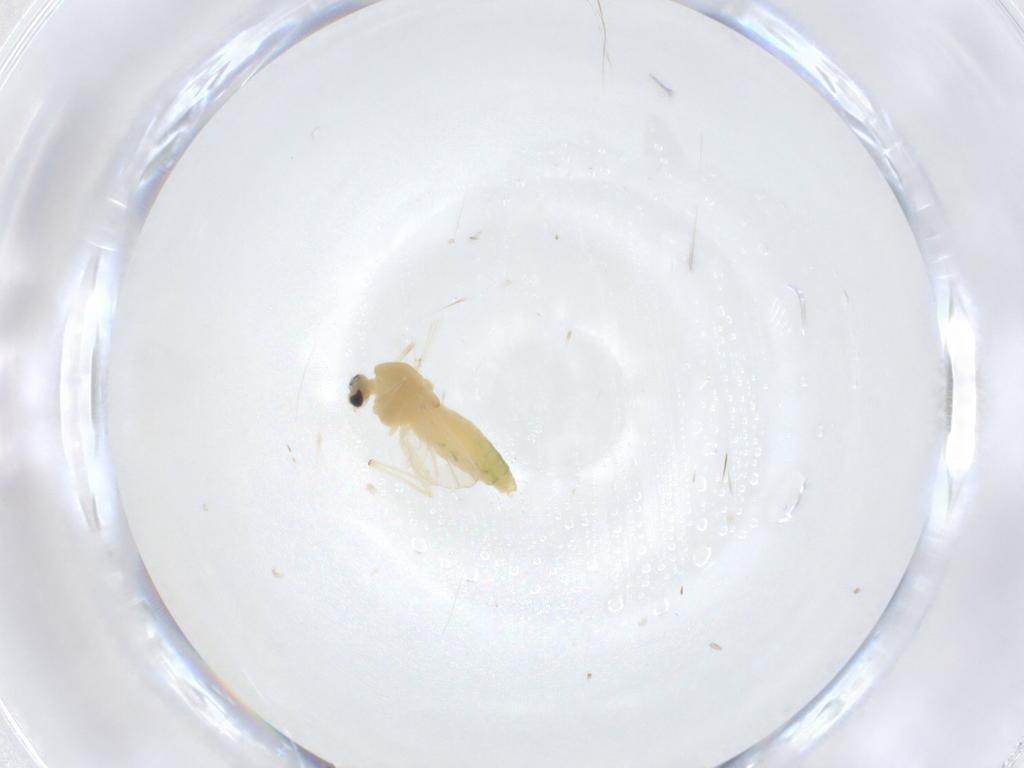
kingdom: Animalia
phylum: Arthropoda
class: Insecta
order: Diptera
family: Chironomidae
